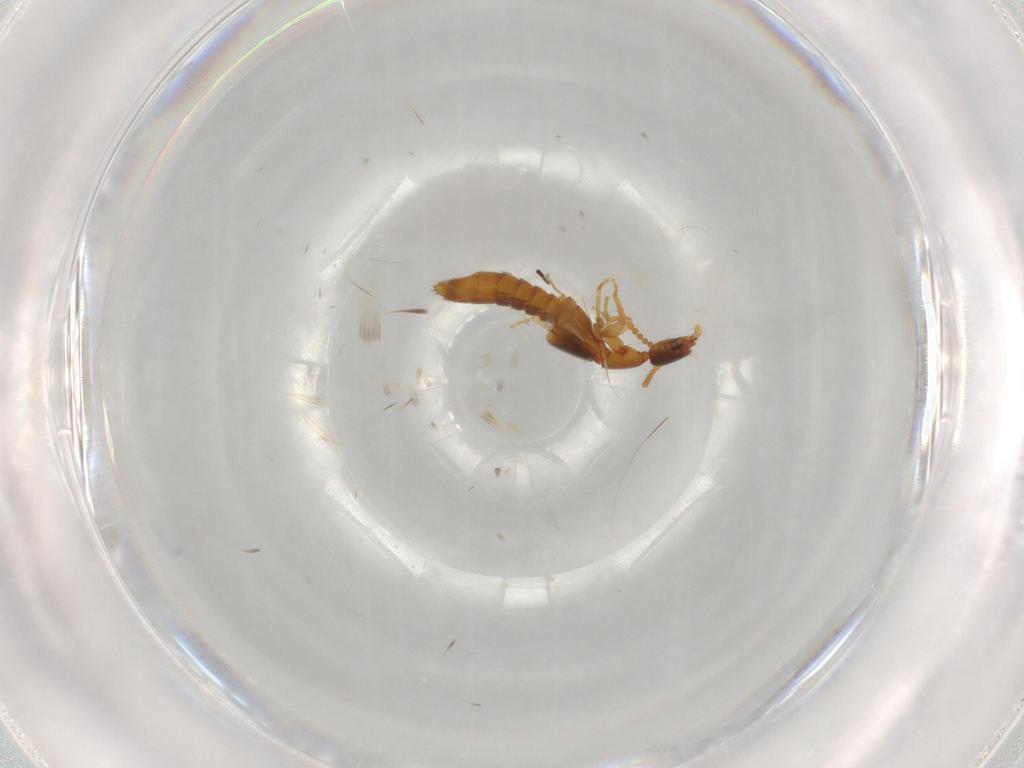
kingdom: Animalia
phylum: Arthropoda
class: Insecta
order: Coleoptera
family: Staphylinidae
